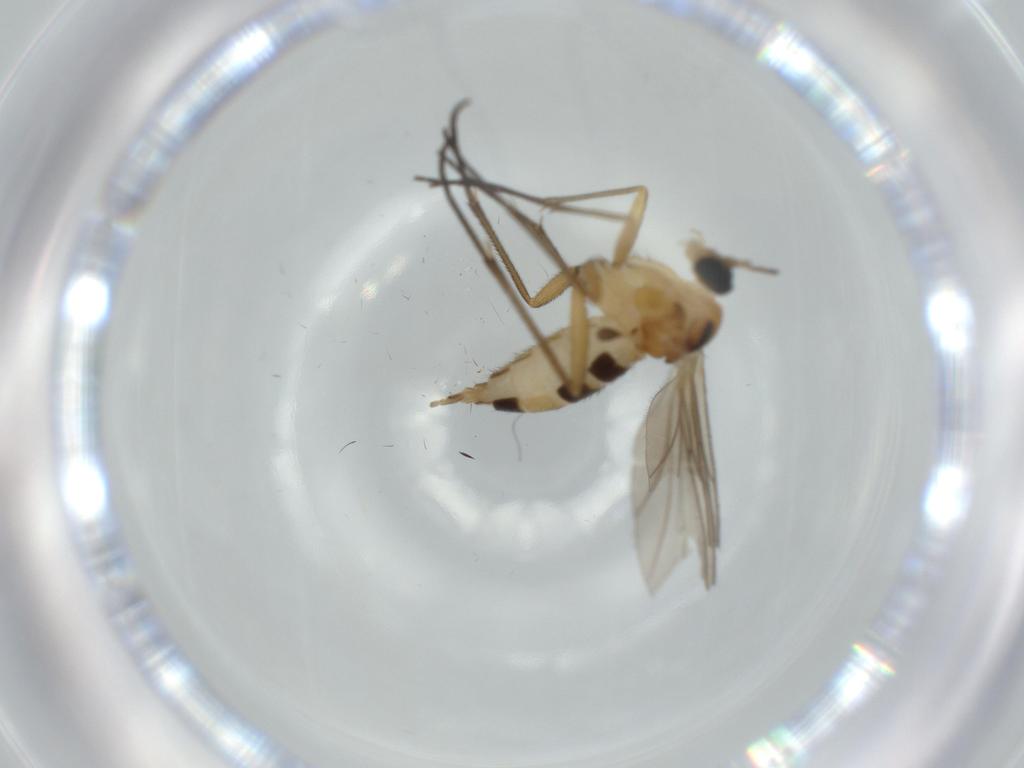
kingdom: Animalia
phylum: Arthropoda
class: Insecta
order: Diptera
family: Sciaridae
